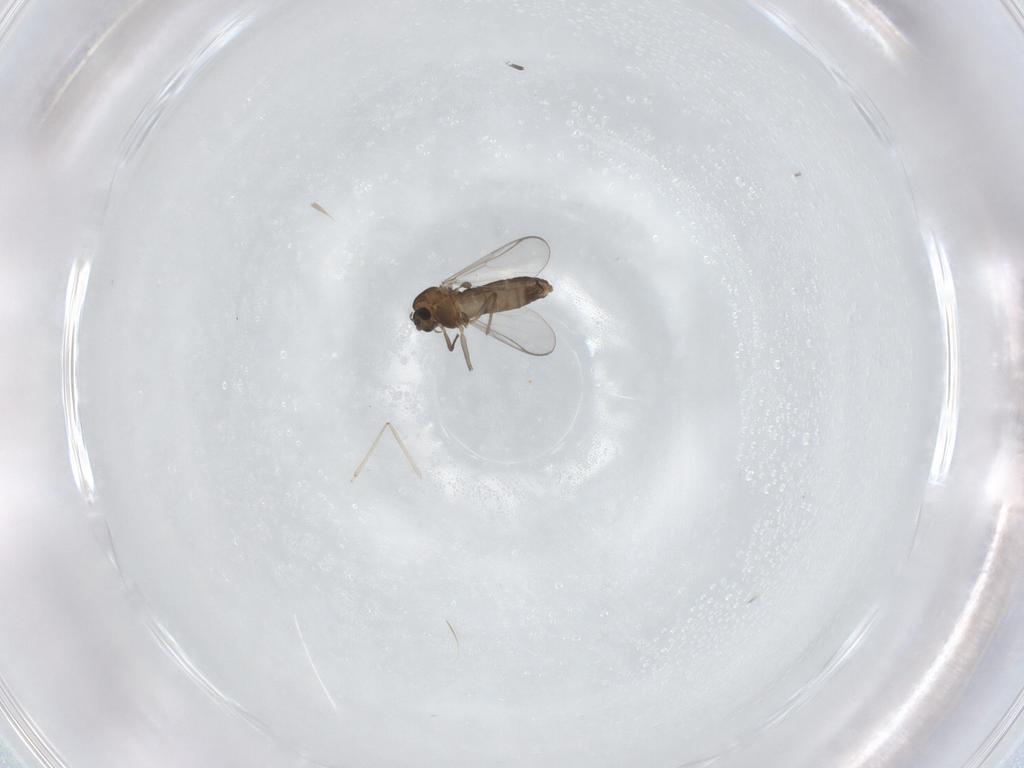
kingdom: Animalia
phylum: Arthropoda
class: Insecta
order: Diptera
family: Chironomidae
